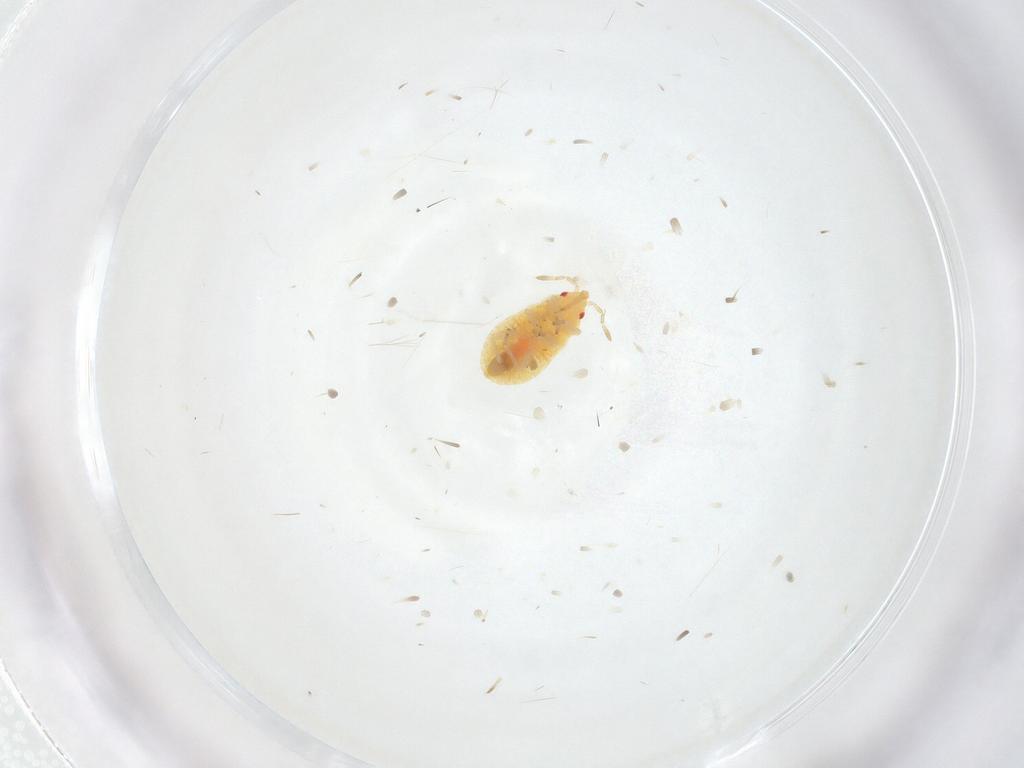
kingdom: Animalia
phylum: Arthropoda
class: Insecta
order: Hemiptera
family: Anthocoridae
